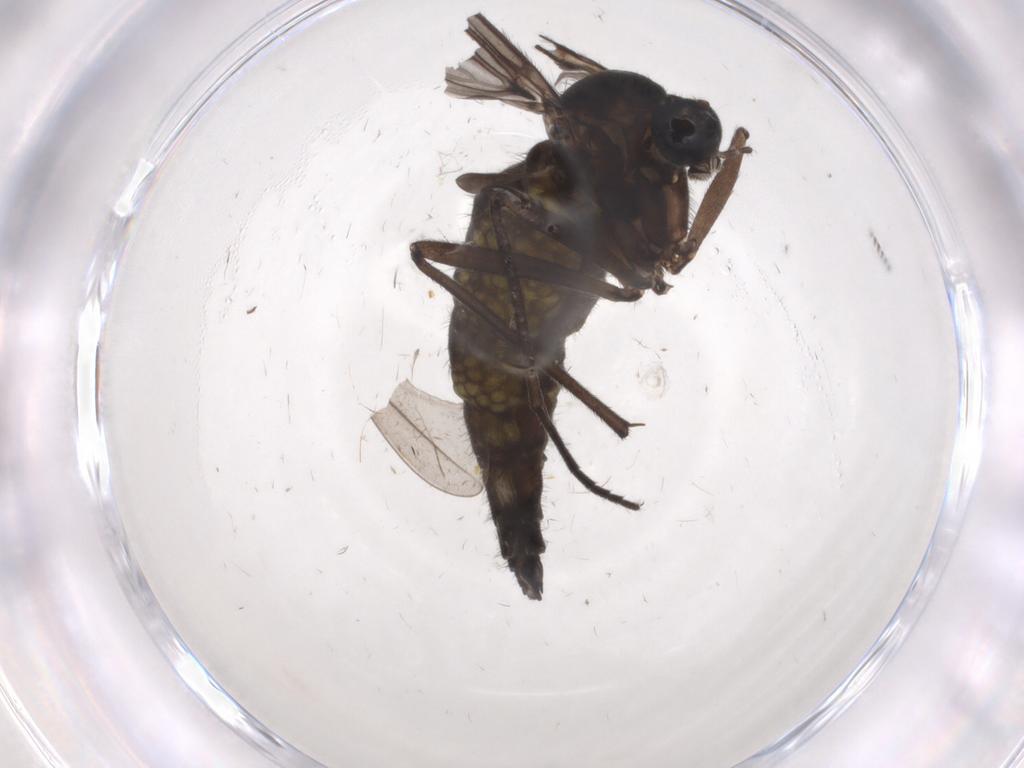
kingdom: Animalia
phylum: Arthropoda
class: Insecta
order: Diptera
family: Sciaridae
